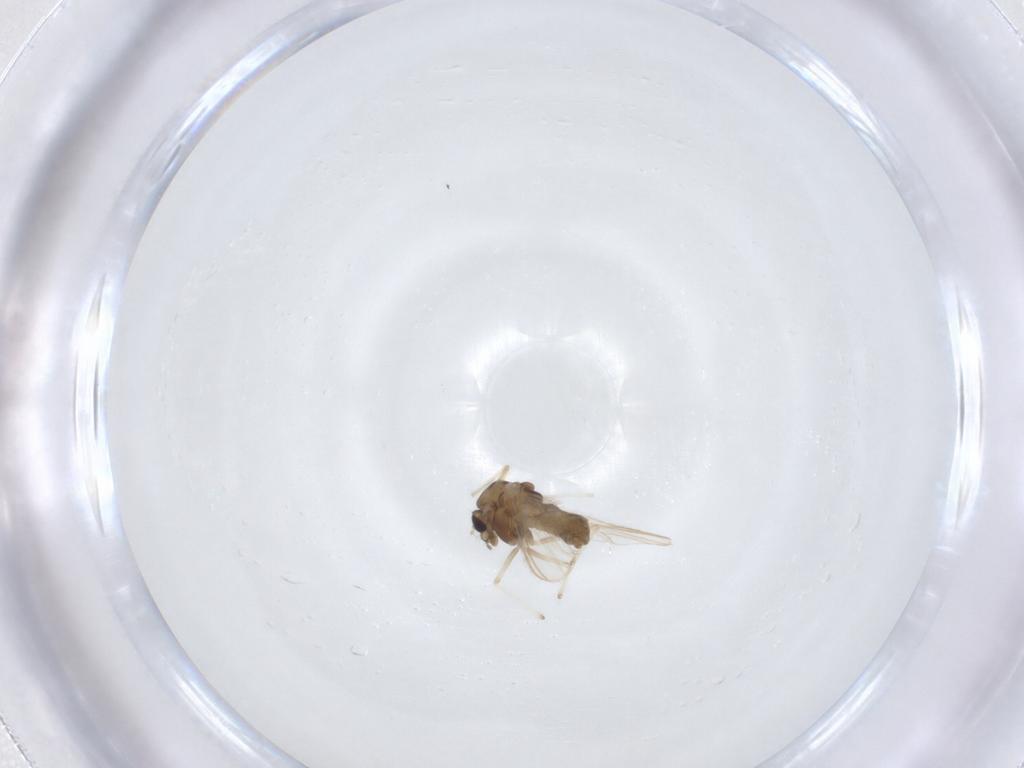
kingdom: Animalia
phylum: Arthropoda
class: Insecta
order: Diptera
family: Chironomidae
